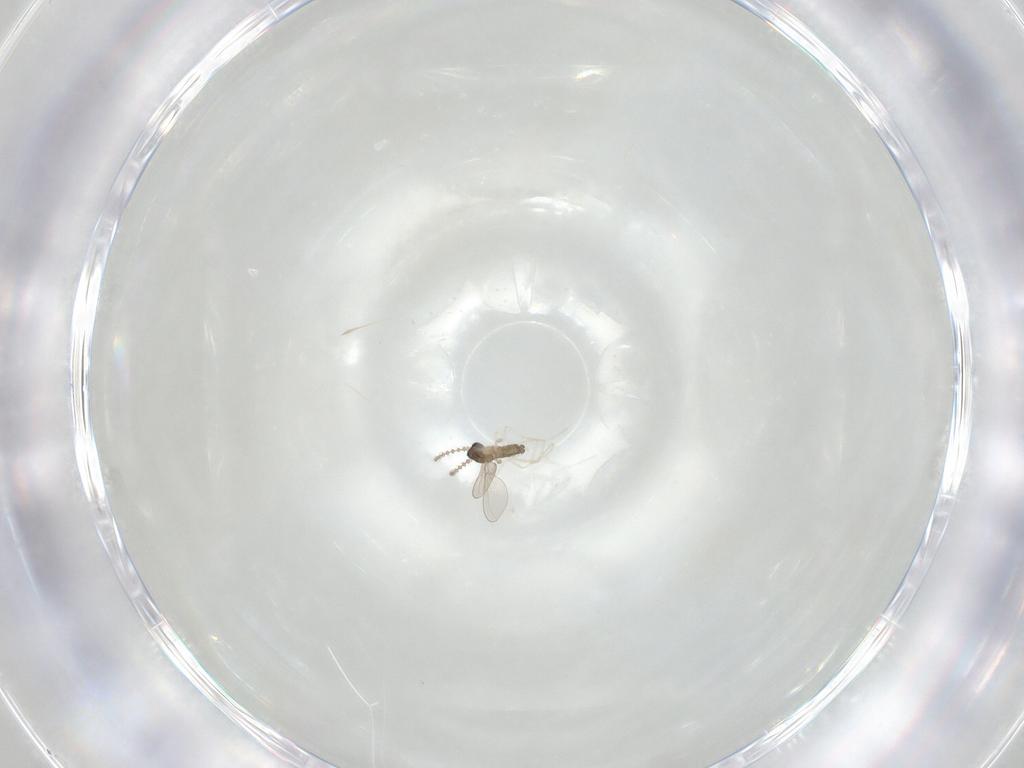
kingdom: Animalia
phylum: Arthropoda
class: Insecta
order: Diptera
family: Cecidomyiidae
